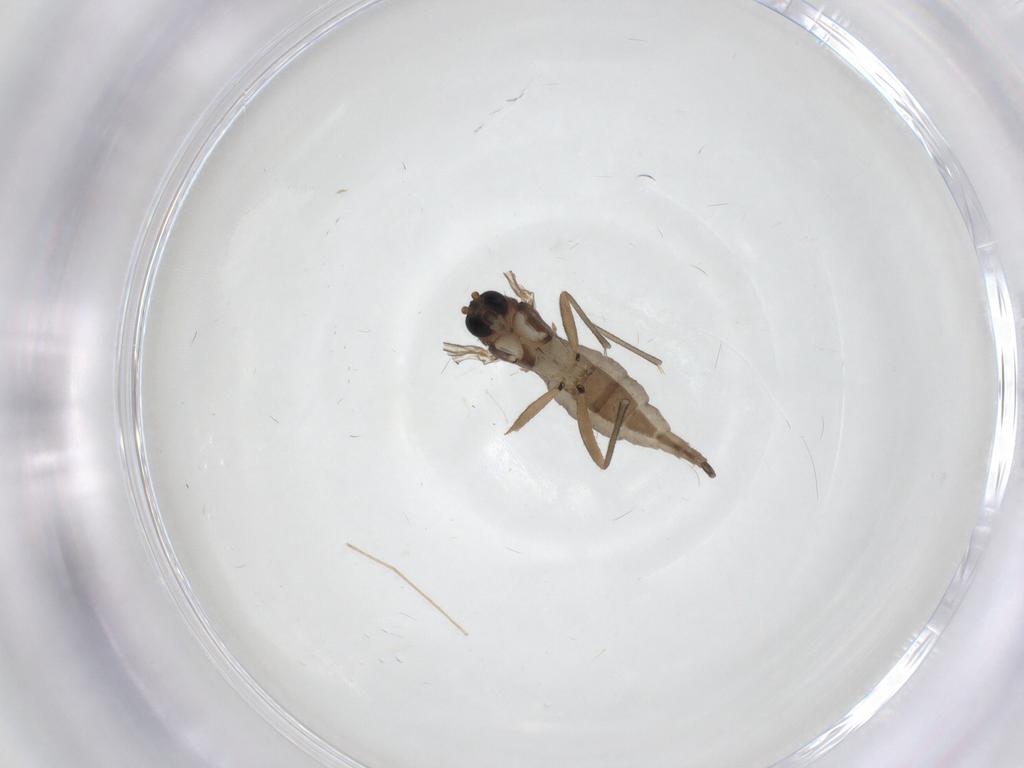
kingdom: Animalia
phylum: Arthropoda
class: Insecta
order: Diptera
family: Sciaridae
